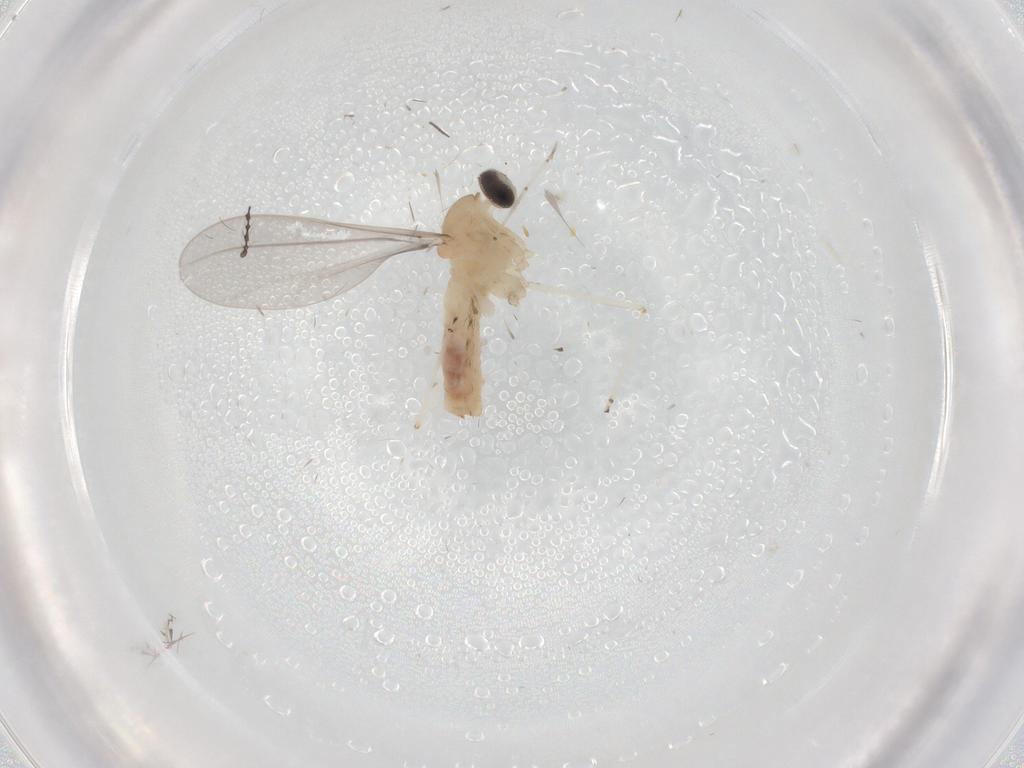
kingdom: Animalia
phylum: Arthropoda
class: Insecta
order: Diptera
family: Cecidomyiidae
